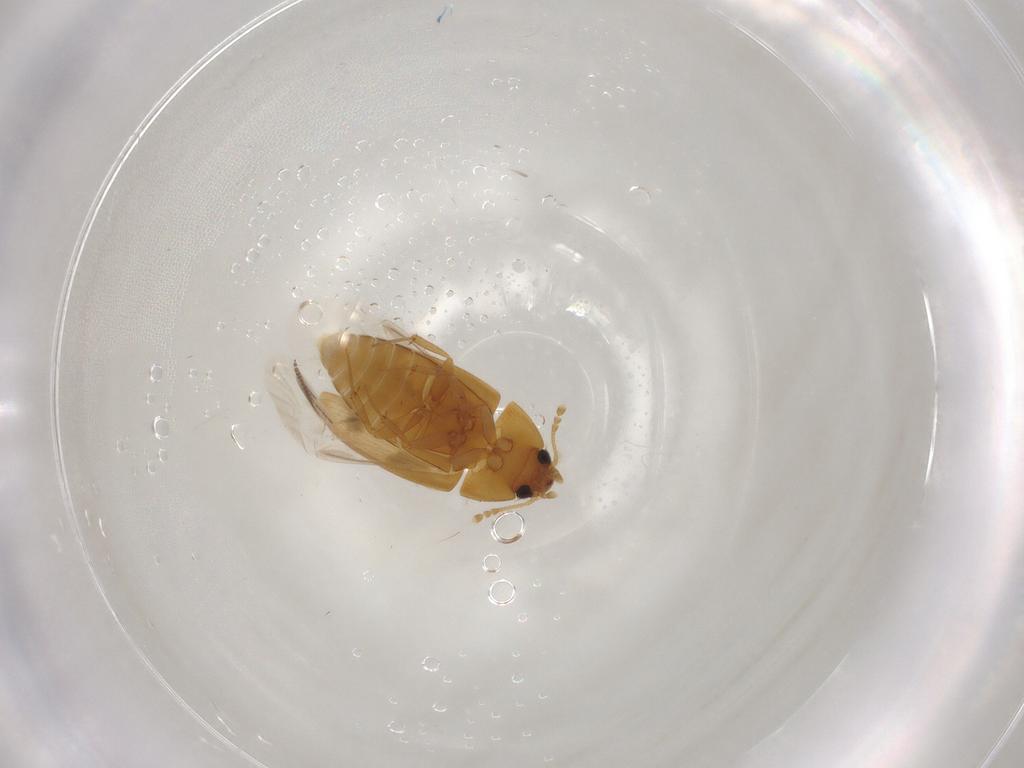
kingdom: Animalia
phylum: Arthropoda
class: Insecta
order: Coleoptera
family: Mycetophagidae
